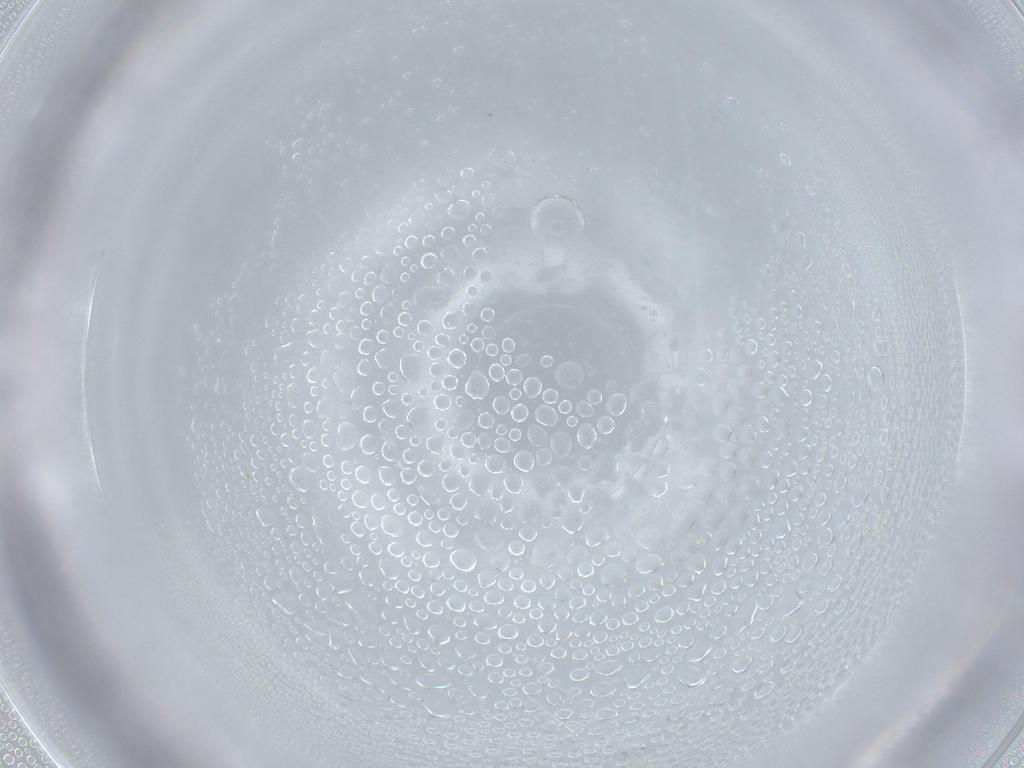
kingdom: Animalia
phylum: Arthropoda
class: Insecta
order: Diptera
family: Cecidomyiidae
